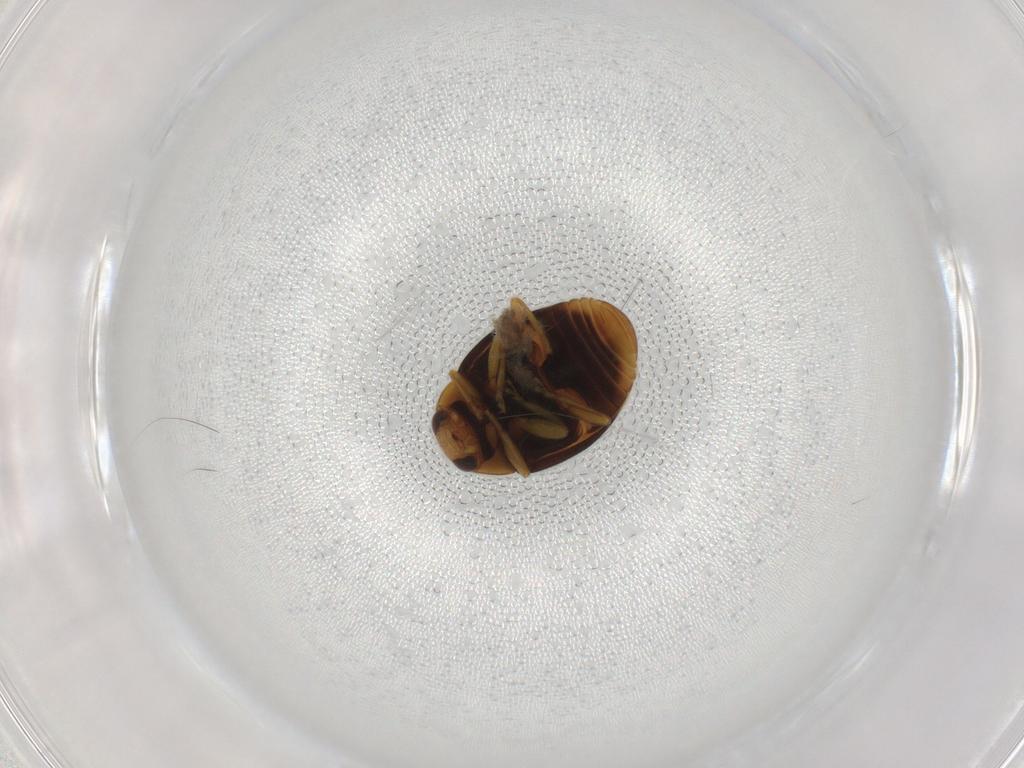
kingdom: Animalia
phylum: Arthropoda
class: Insecta
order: Coleoptera
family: Coccinellidae
